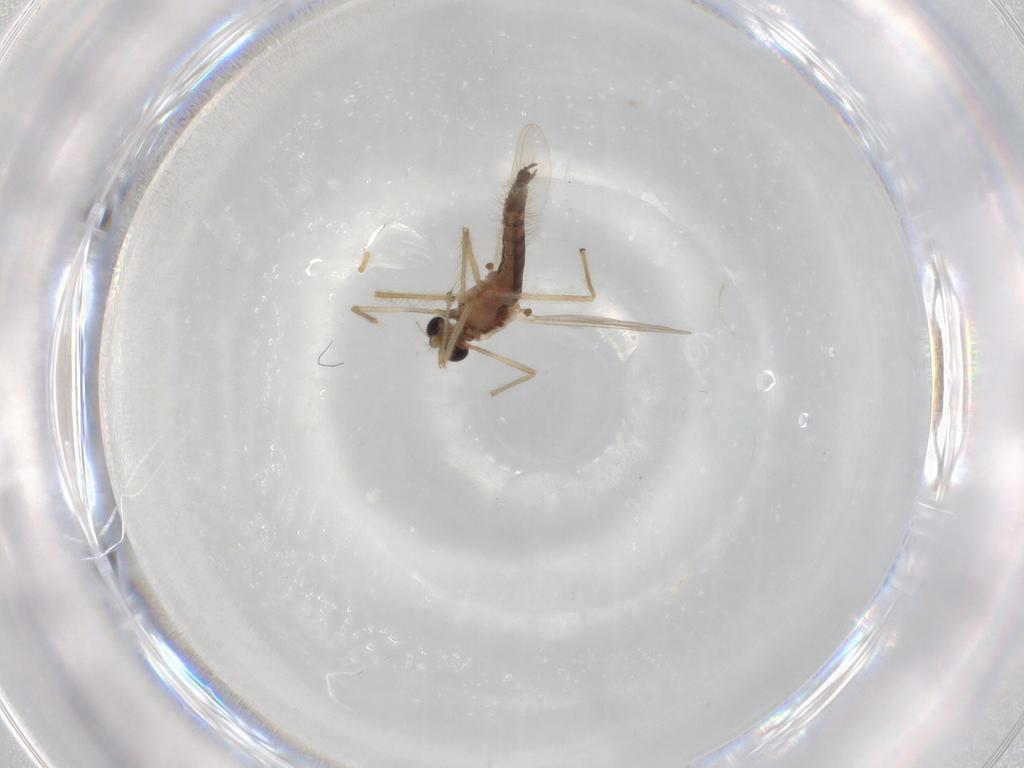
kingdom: Animalia
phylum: Arthropoda
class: Insecta
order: Diptera
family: Chironomidae
